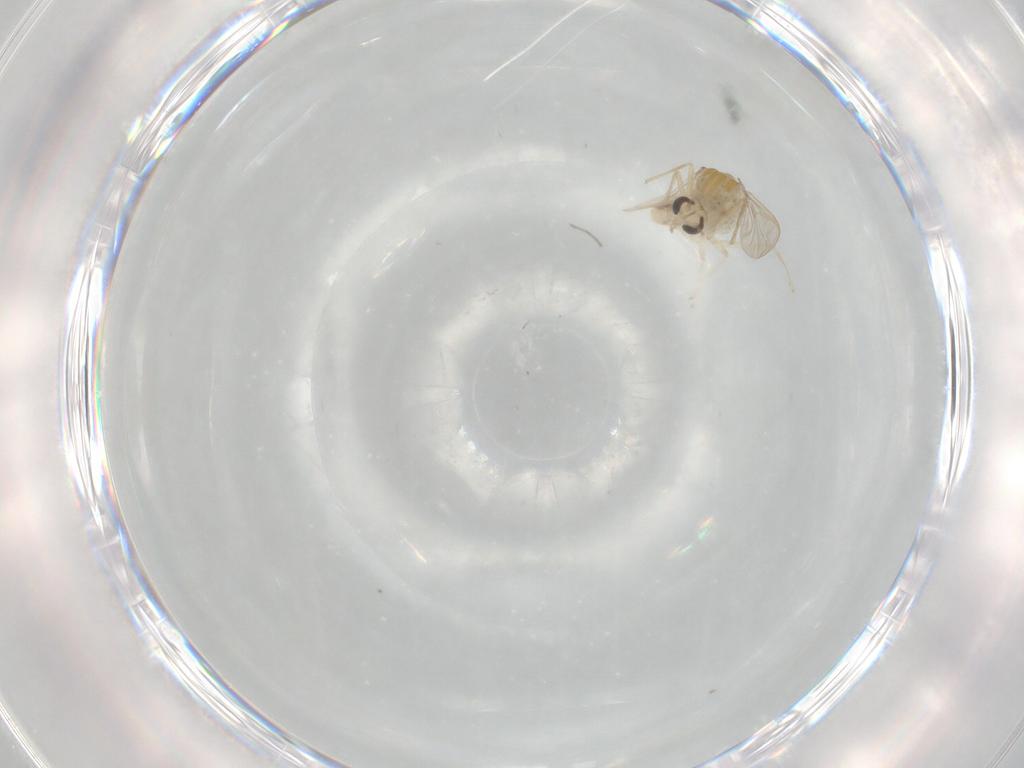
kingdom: Animalia
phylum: Arthropoda
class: Insecta
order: Diptera
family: Chironomidae
